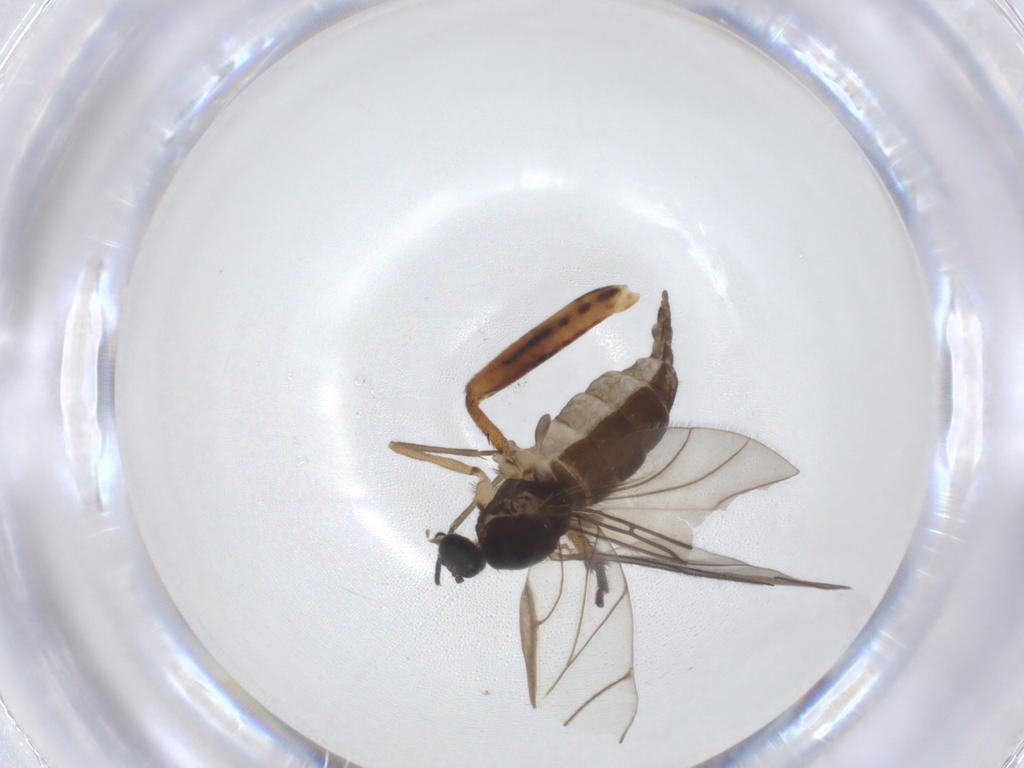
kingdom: Animalia
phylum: Arthropoda
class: Insecta
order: Diptera
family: Sciaridae
